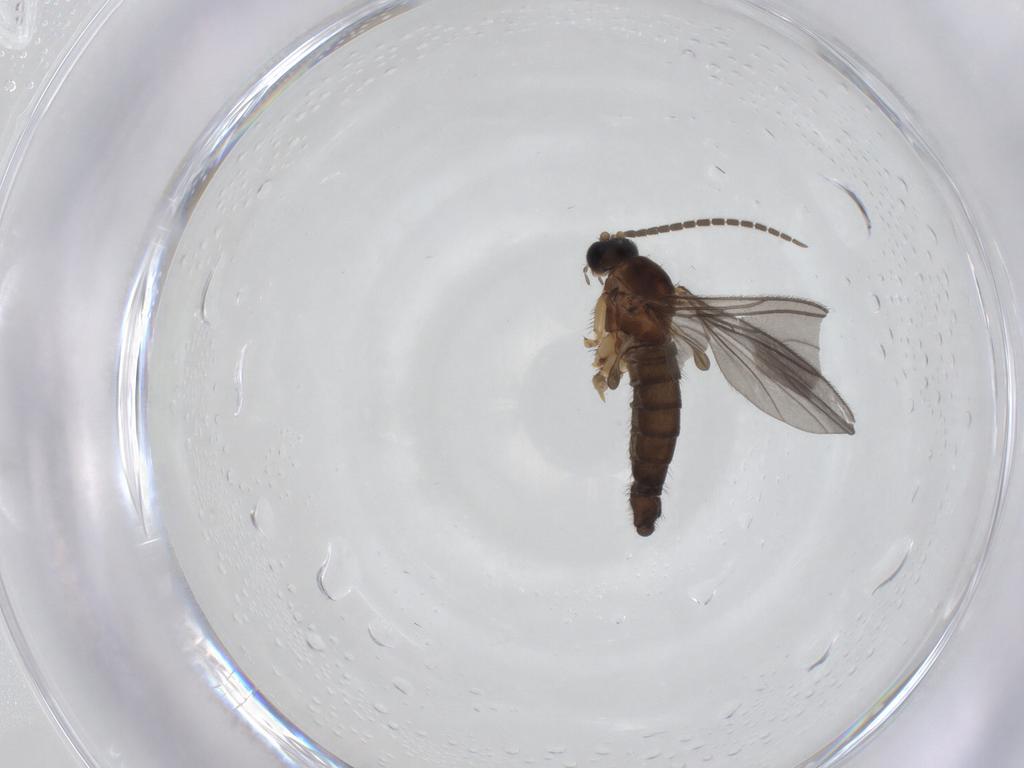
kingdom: Animalia
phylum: Arthropoda
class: Insecta
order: Diptera
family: Sciaridae
